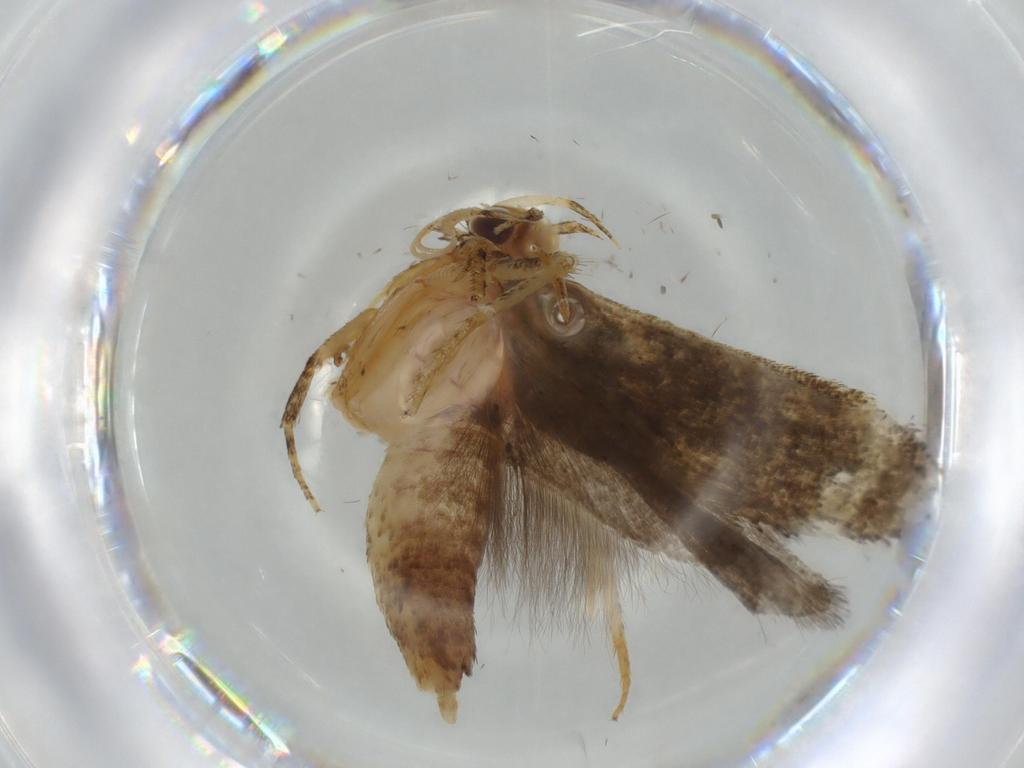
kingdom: Animalia
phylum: Arthropoda
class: Insecta
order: Lepidoptera
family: Gracillariidae
